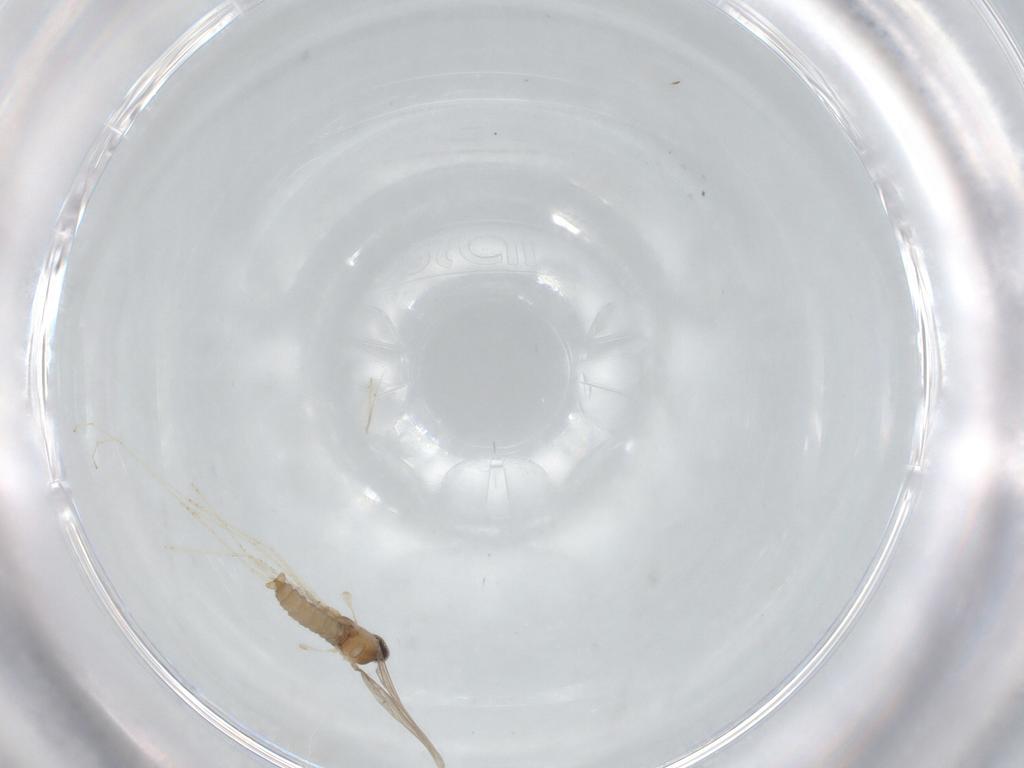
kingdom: Animalia
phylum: Arthropoda
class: Insecta
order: Diptera
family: Cecidomyiidae
